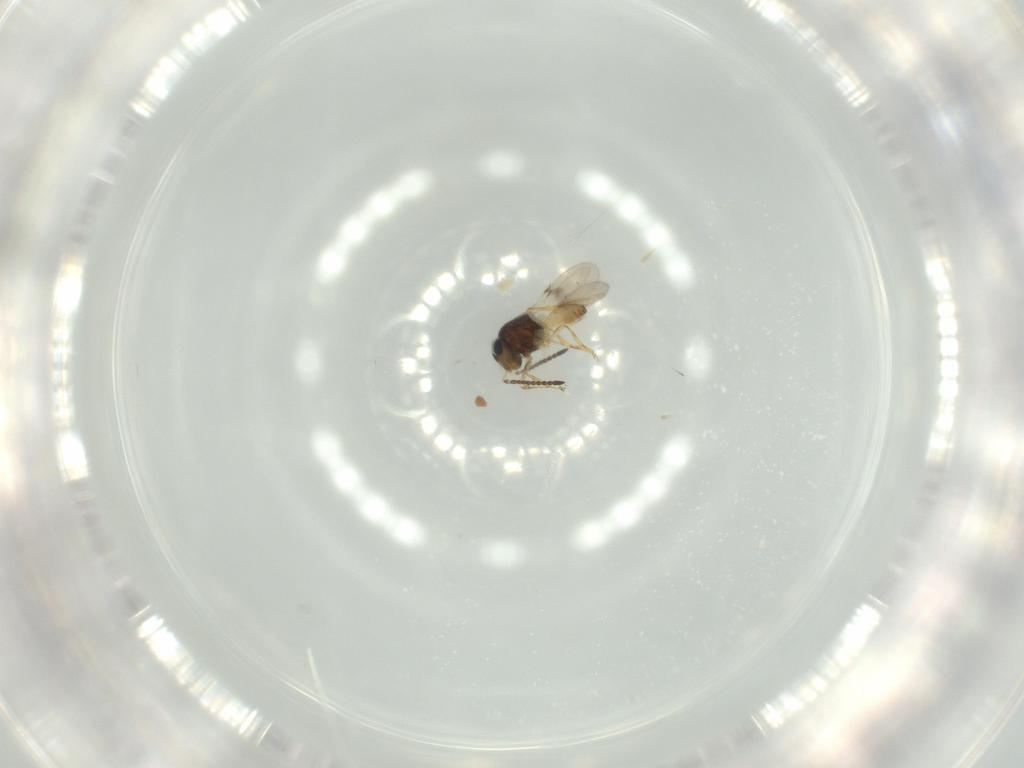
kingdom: Animalia
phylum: Arthropoda
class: Insecta
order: Hymenoptera
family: Scelionidae
